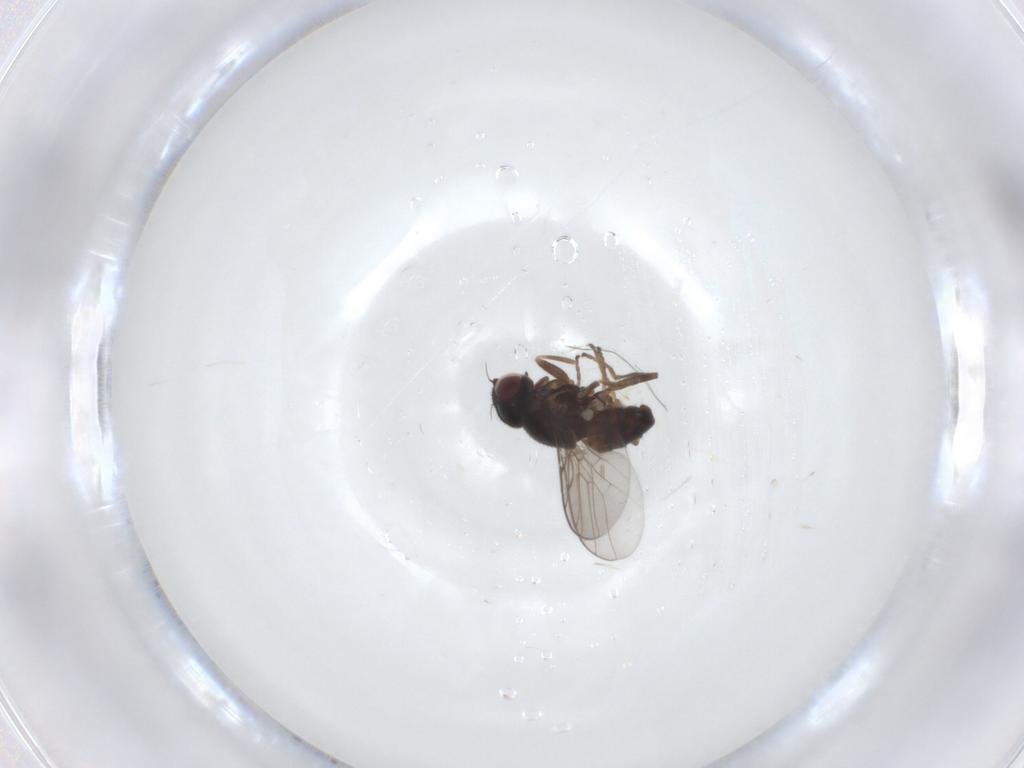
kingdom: Animalia
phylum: Arthropoda
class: Insecta
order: Diptera
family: Chloropidae
